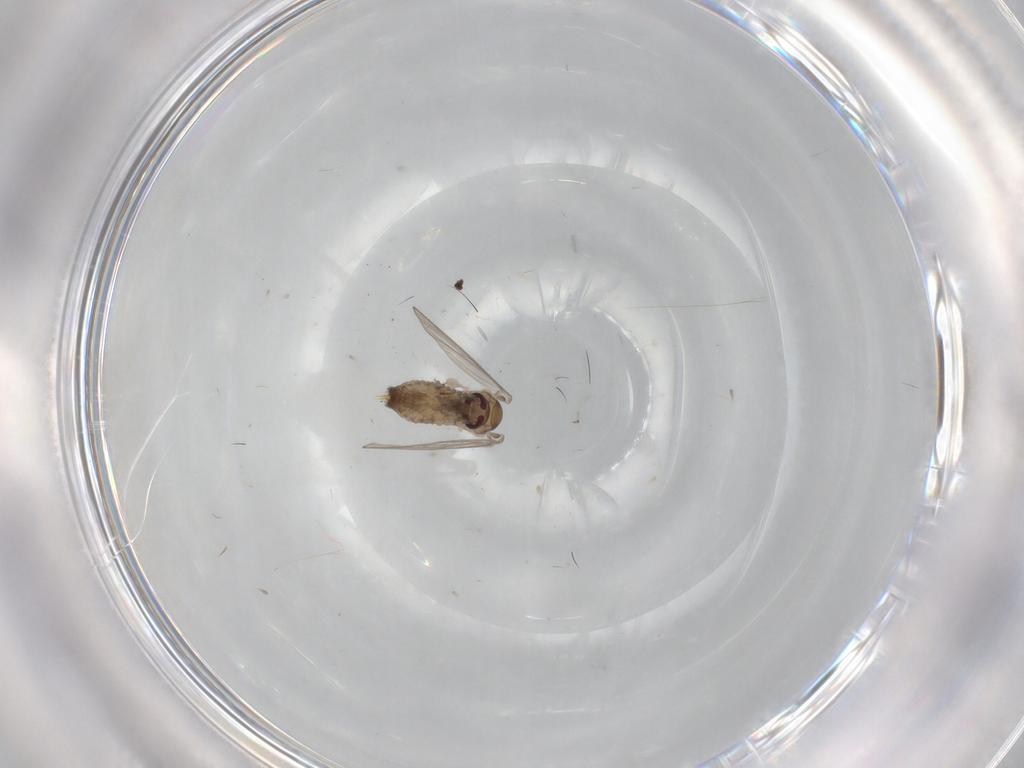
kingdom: Animalia
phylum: Arthropoda
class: Insecta
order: Diptera
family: Psychodidae
